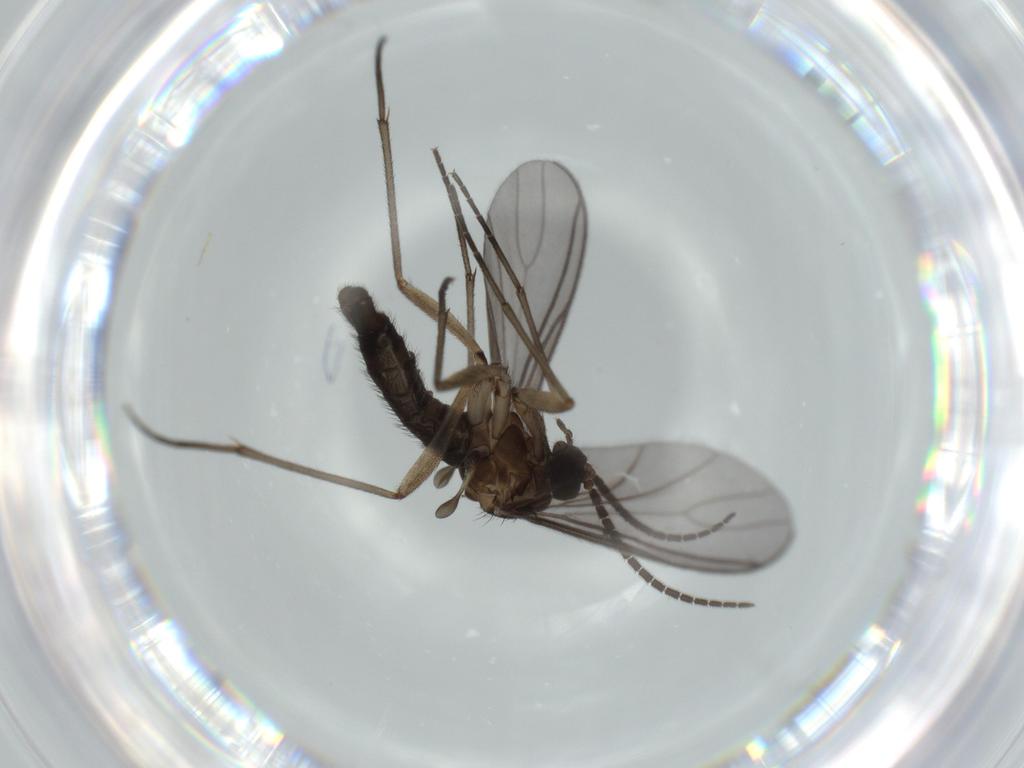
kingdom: Animalia
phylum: Arthropoda
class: Insecta
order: Diptera
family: Sciaridae
